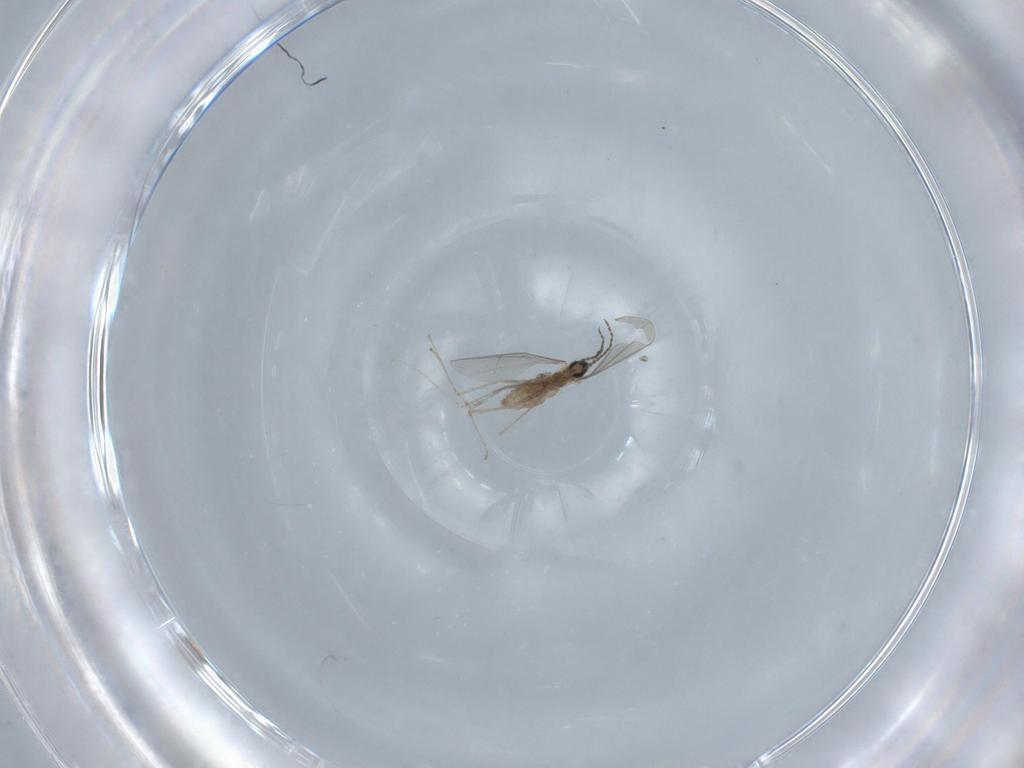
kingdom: Animalia
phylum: Arthropoda
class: Insecta
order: Diptera
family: Cecidomyiidae
